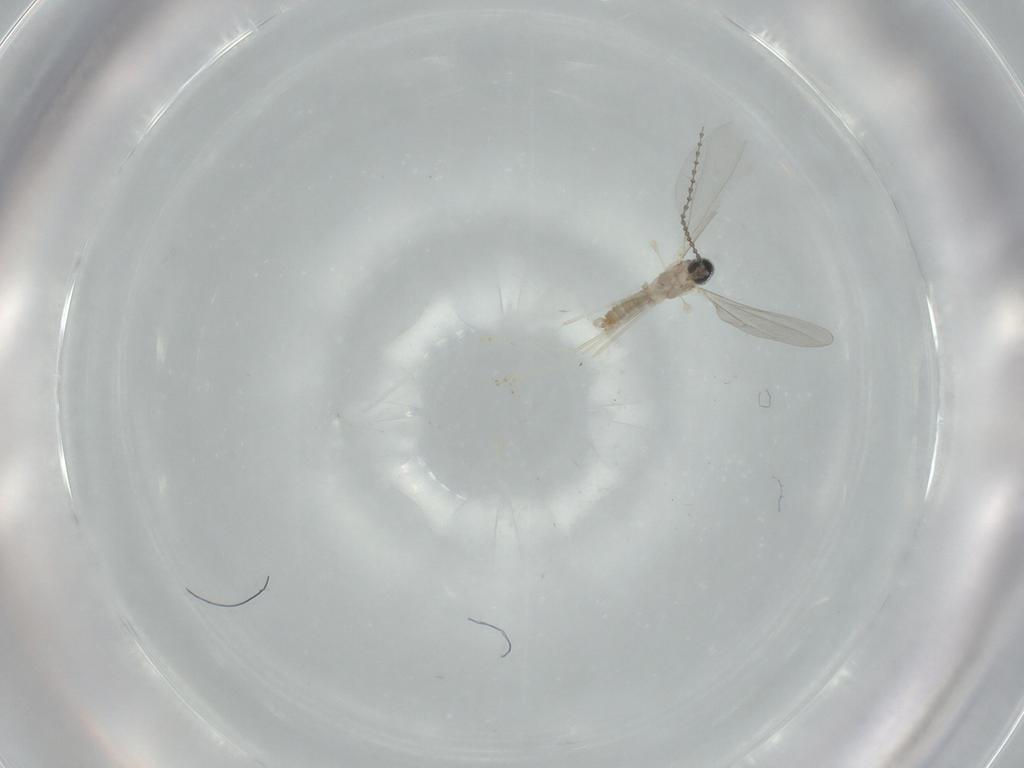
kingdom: Animalia
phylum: Arthropoda
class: Insecta
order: Diptera
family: Cecidomyiidae
